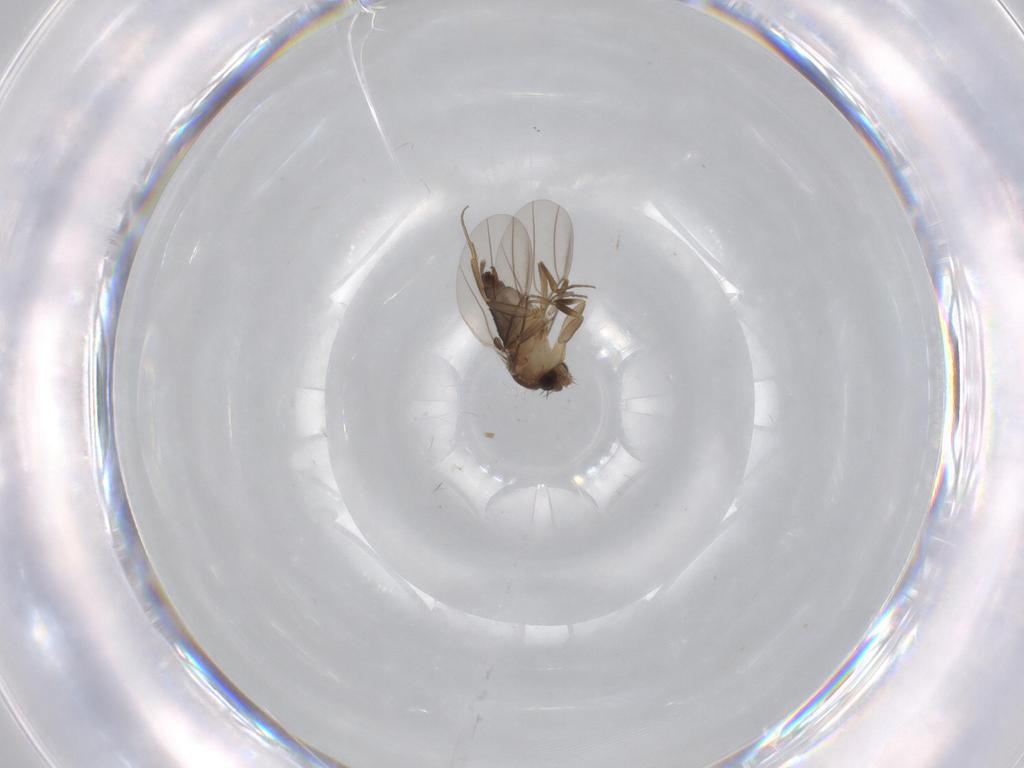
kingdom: Animalia
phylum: Arthropoda
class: Insecta
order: Diptera
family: Phoridae
